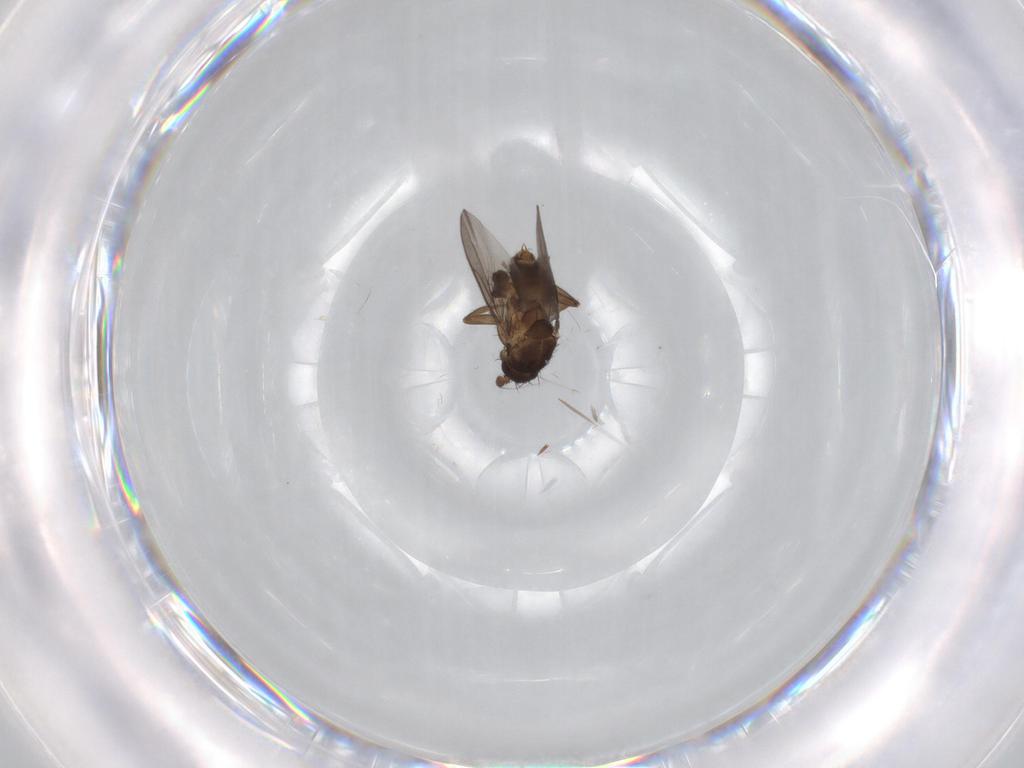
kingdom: Animalia
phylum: Arthropoda
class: Insecta
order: Diptera
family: Sphaeroceridae
